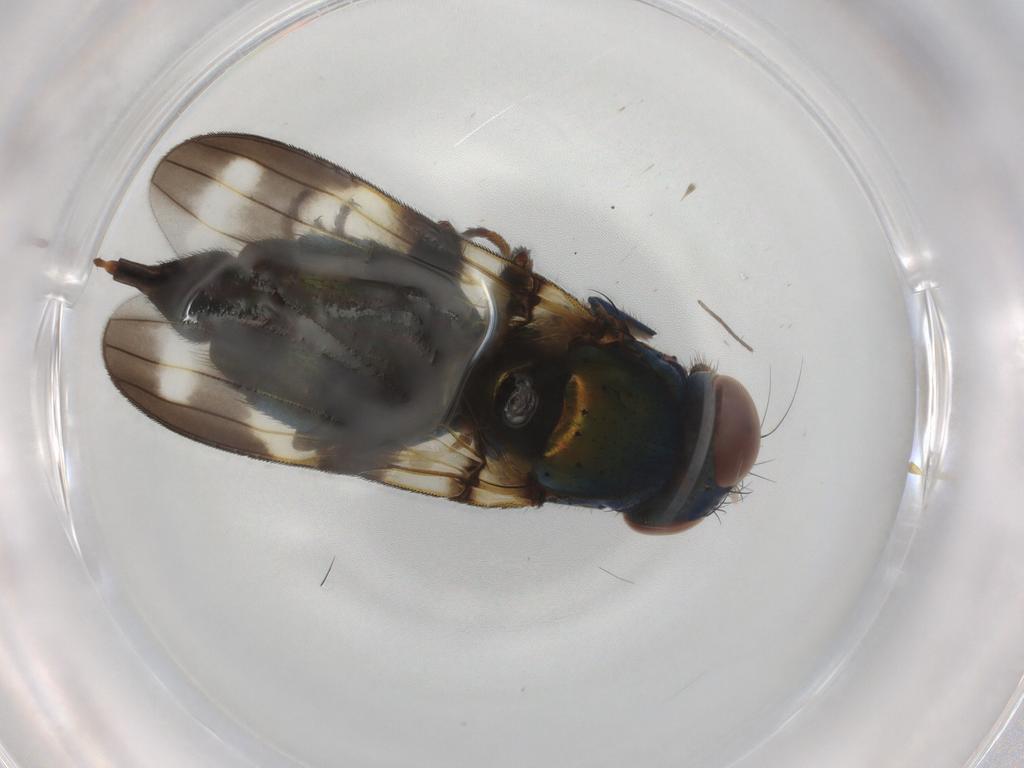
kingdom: Animalia
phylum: Arthropoda
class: Insecta
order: Diptera
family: Ulidiidae
